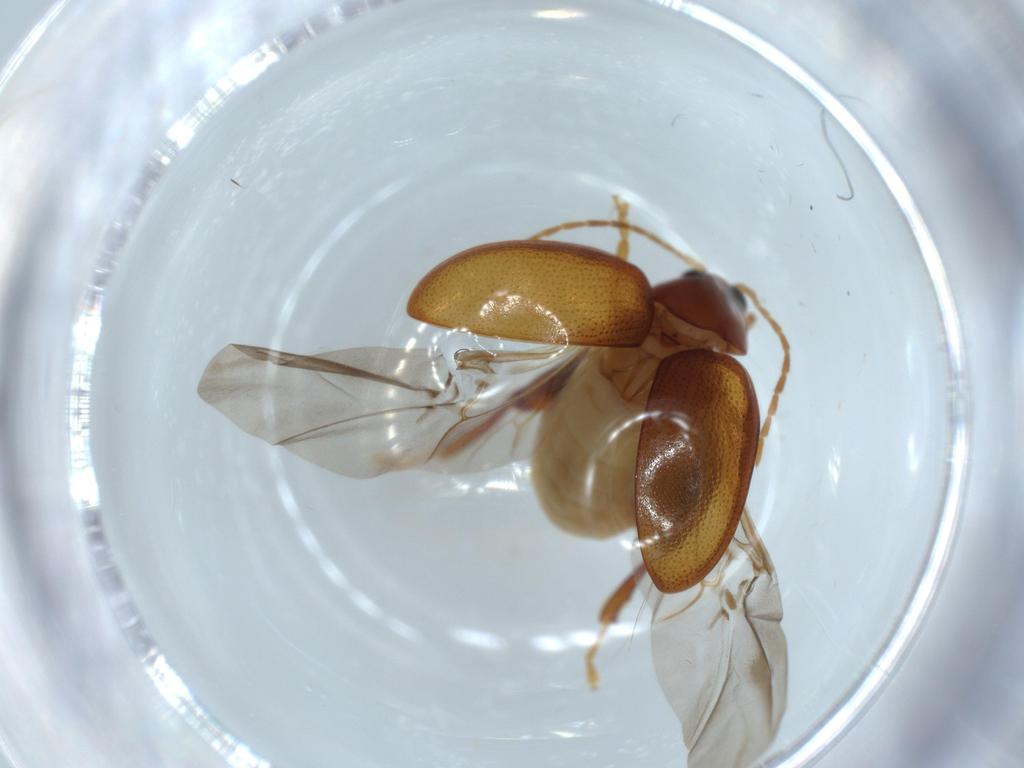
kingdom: Animalia
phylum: Arthropoda
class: Insecta
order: Coleoptera
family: Chrysomelidae
